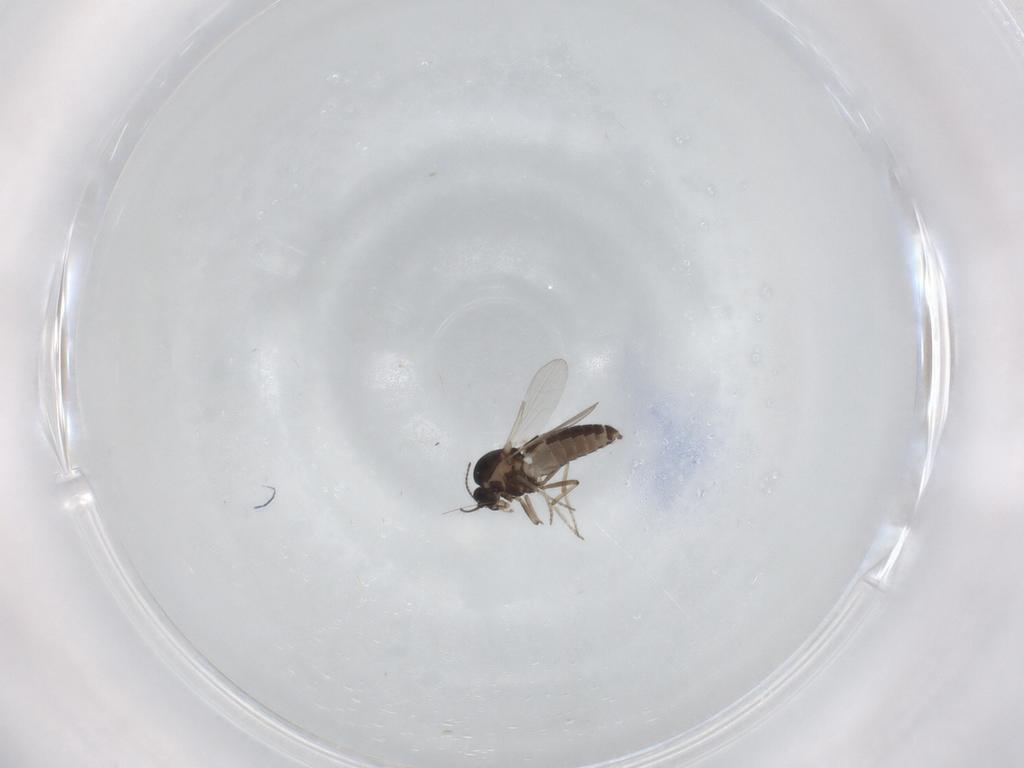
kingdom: Animalia
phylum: Arthropoda
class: Insecta
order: Diptera
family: Ceratopogonidae
